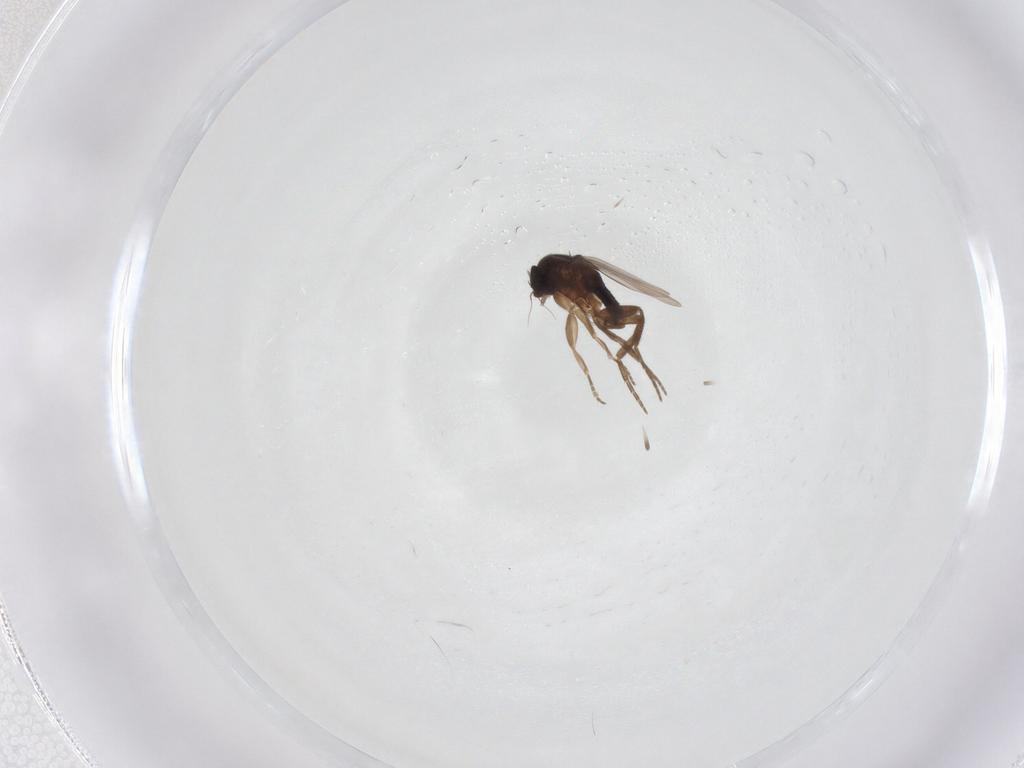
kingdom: Animalia
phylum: Arthropoda
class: Insecta
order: Diptera
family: Phoridae
